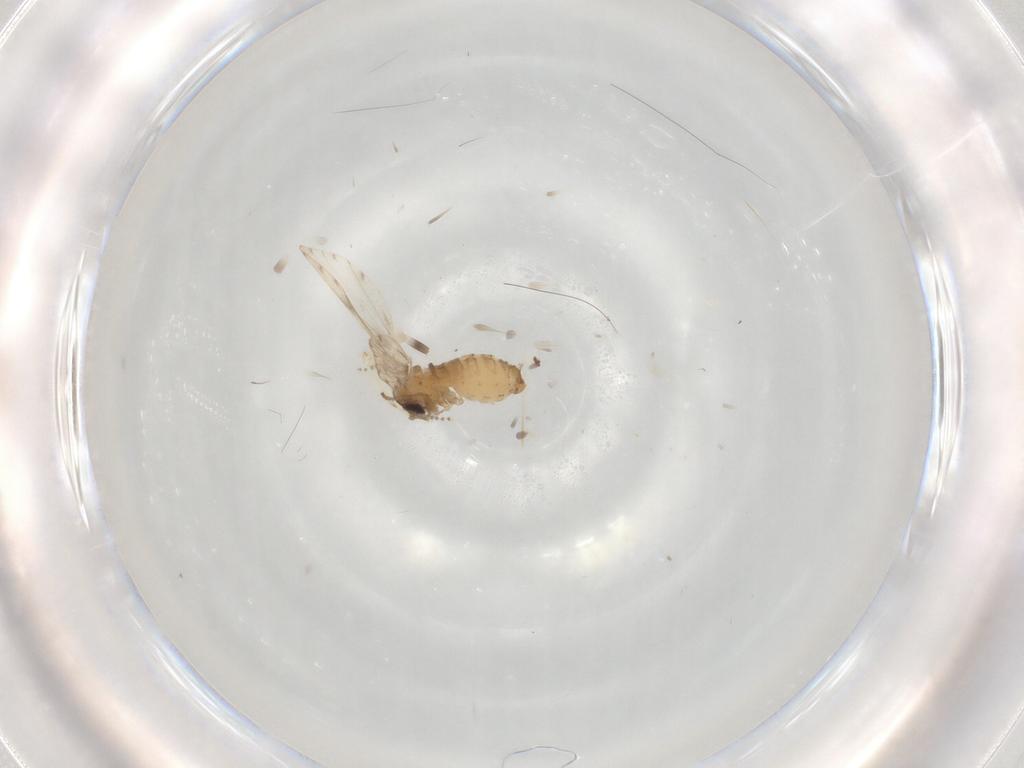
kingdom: Animalia
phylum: Arthropoda
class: Insecta
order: Diptera
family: Psychodidae
